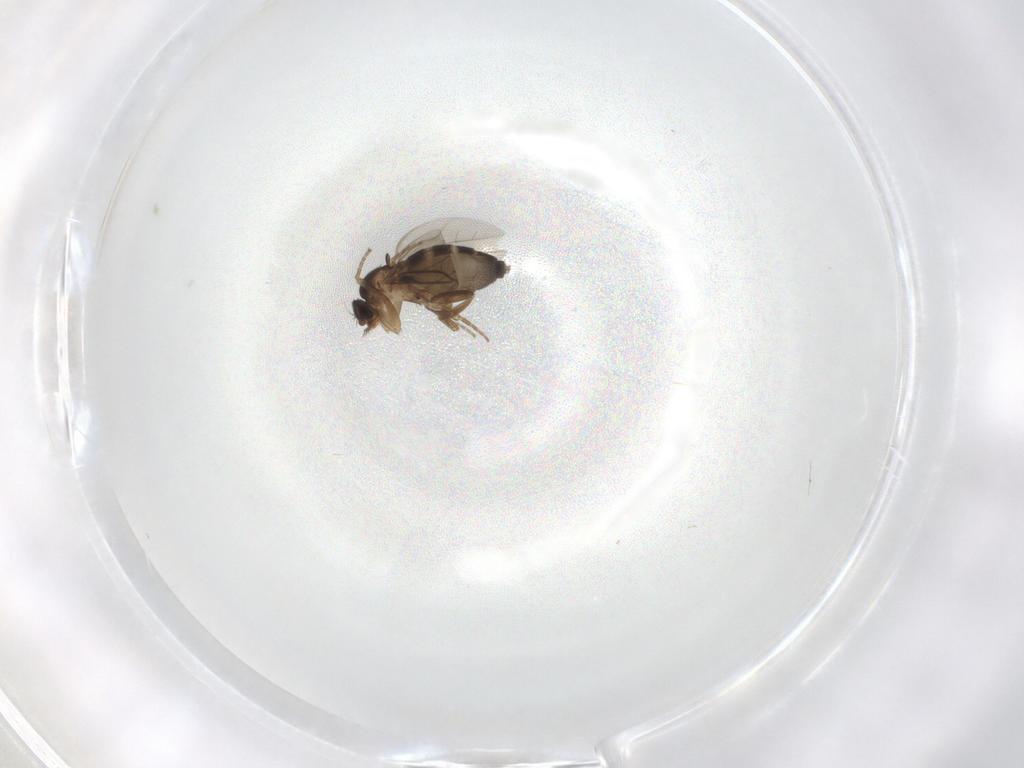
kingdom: Animalia
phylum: Arthropoda
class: Insecta
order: Diptera
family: Phoridae
